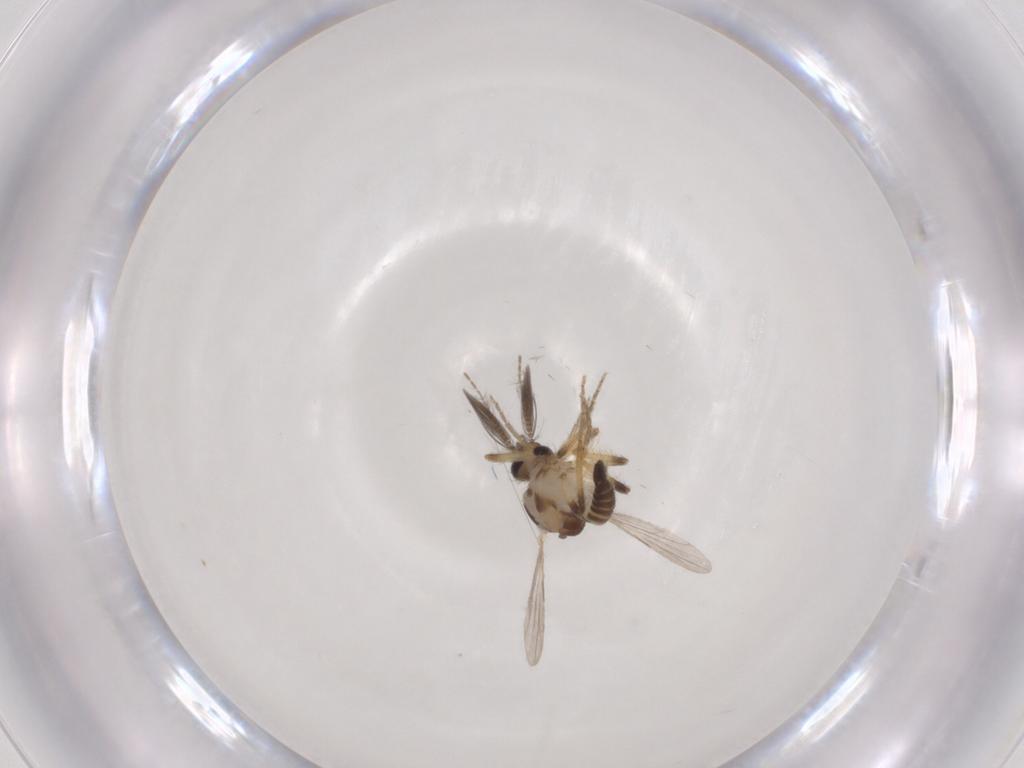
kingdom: Animalia
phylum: Arthropoda
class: Insecta
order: Diptera
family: Ceratopogonidae
